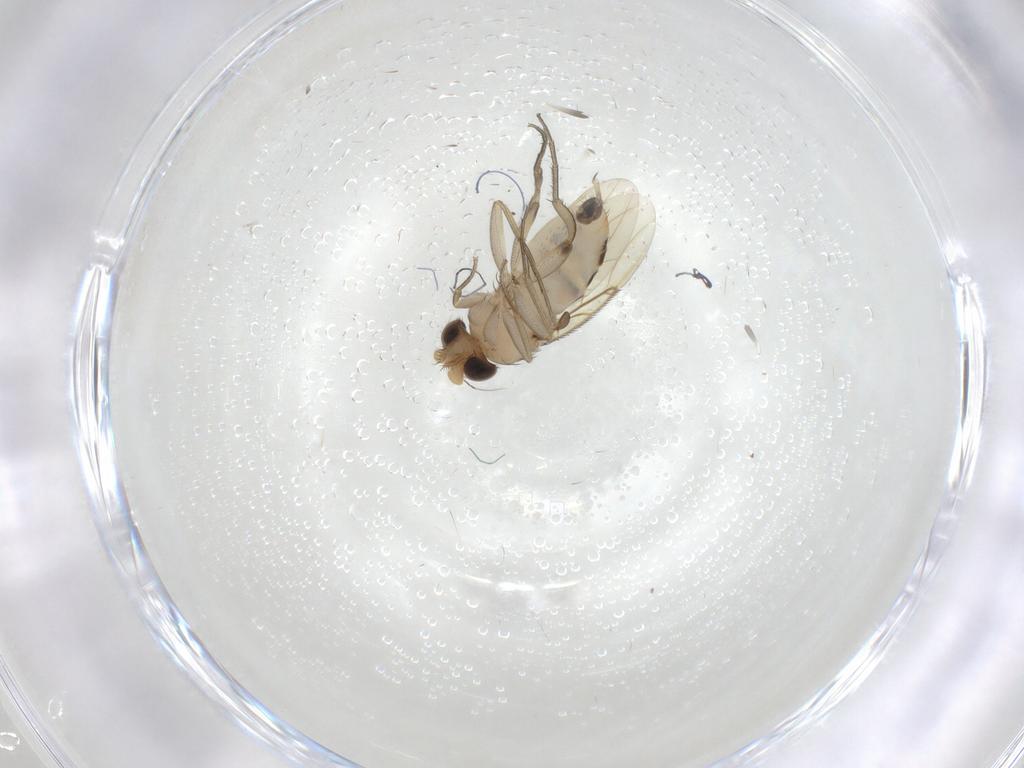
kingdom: Animalia
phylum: Arthropoda
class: Insecta
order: Diptera
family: Phoridae
